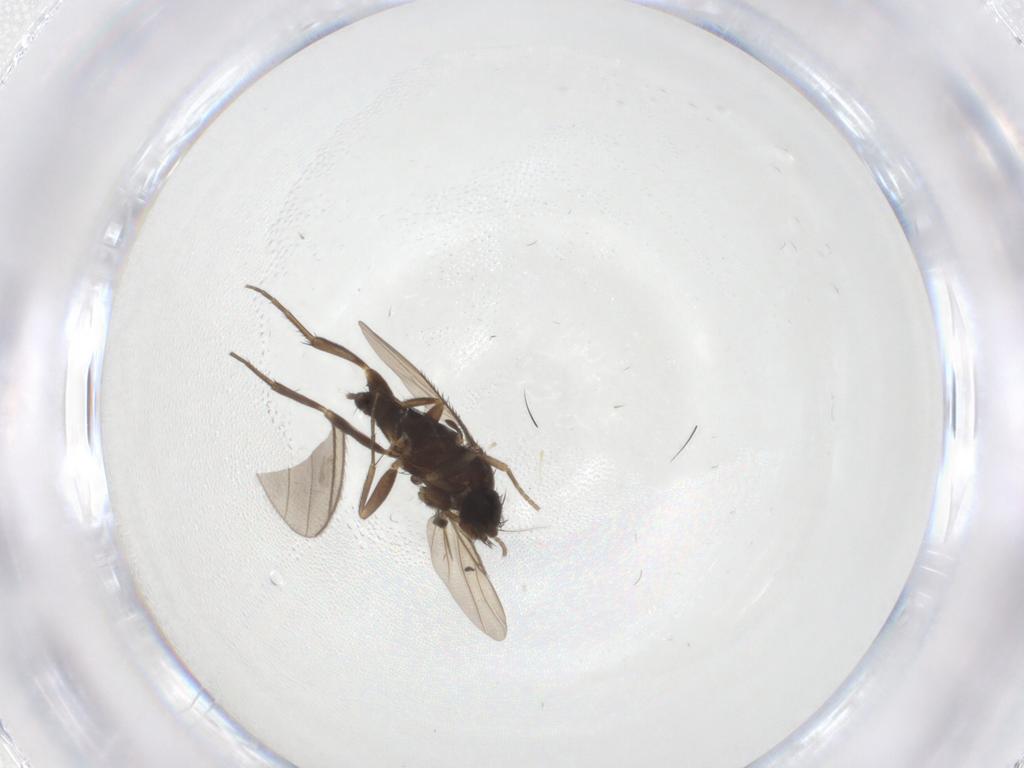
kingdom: Animalia
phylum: Arthropoda
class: Insecta
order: Diptera
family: Phoridae
